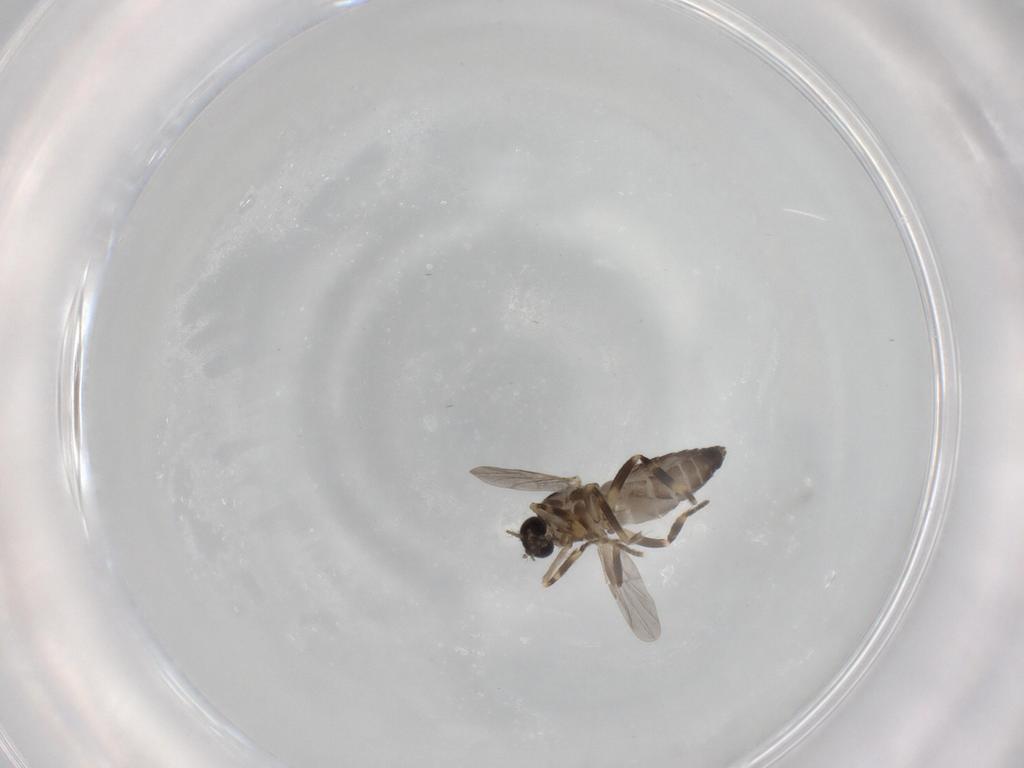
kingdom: Animalia
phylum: Arthropoda
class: Insecta
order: Diptera
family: Ceratopogonidae
